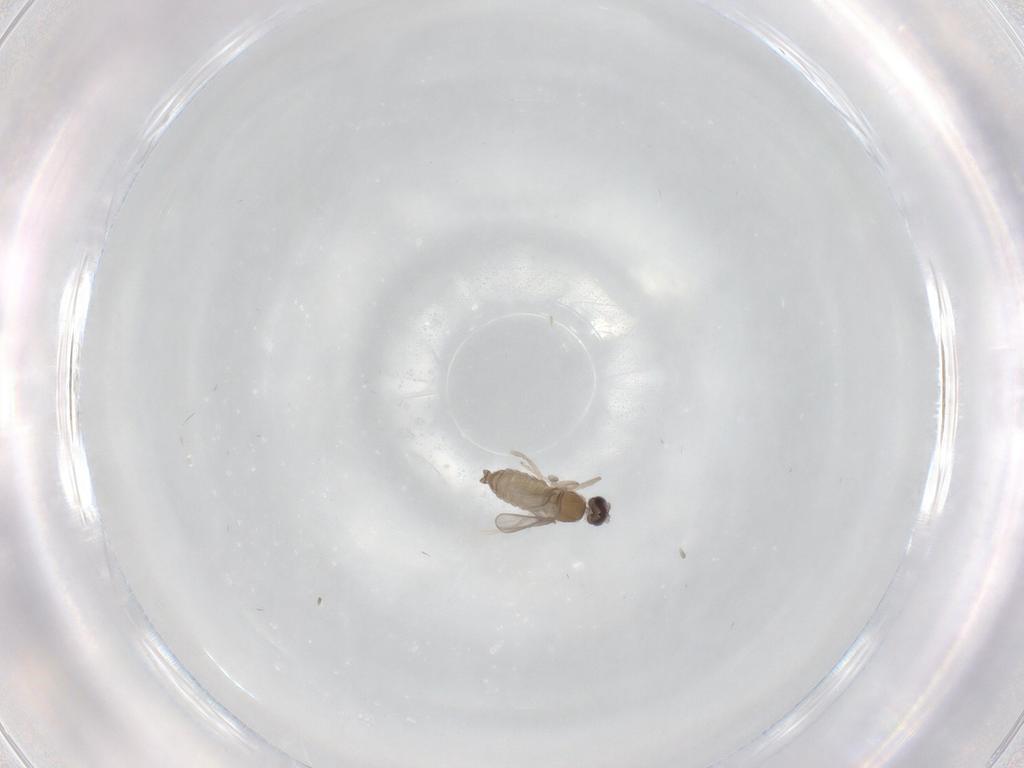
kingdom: Animalia
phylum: Arthropoda
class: Insecta
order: Diptera
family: Cecidomyiidae
